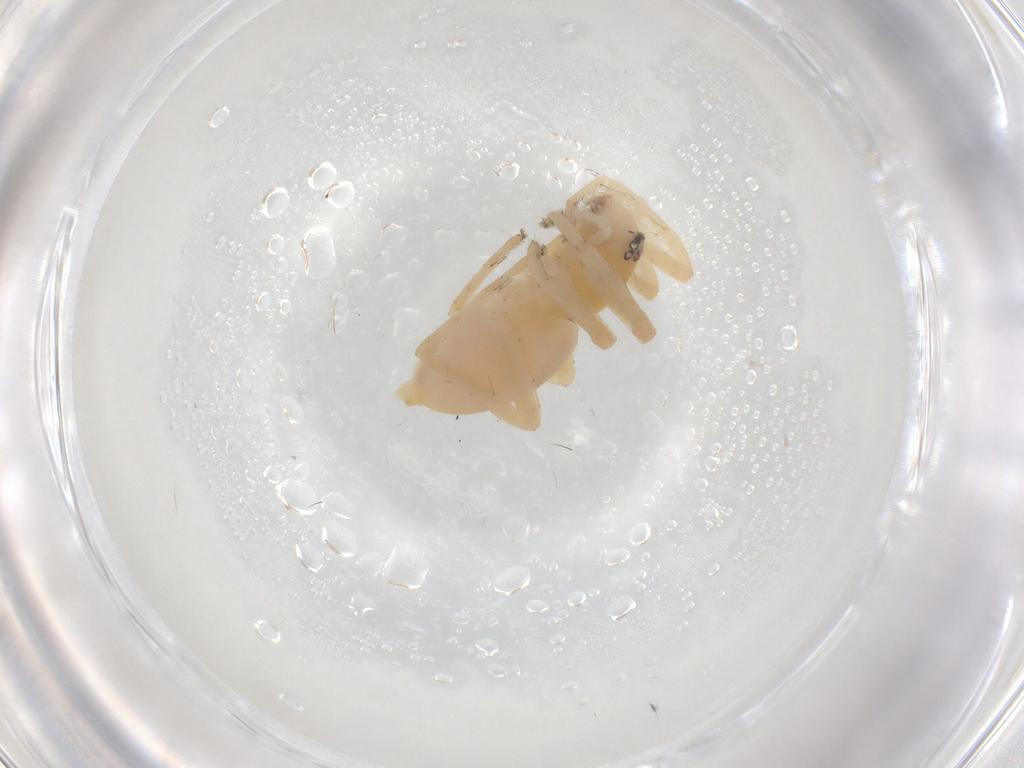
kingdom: Animalia
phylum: Arthropoda
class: Arachnida
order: Araneae
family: Anyphaenidae
